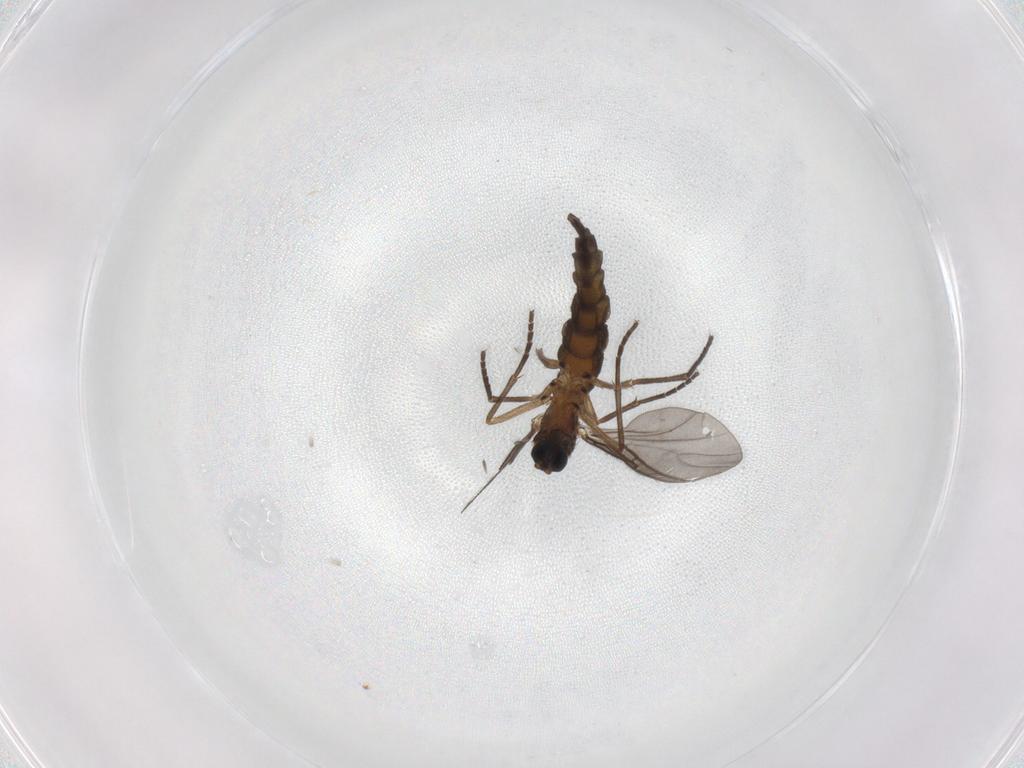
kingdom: Animalia
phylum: Arthropoda
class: Insecta
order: Diptera
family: Sciaridae
